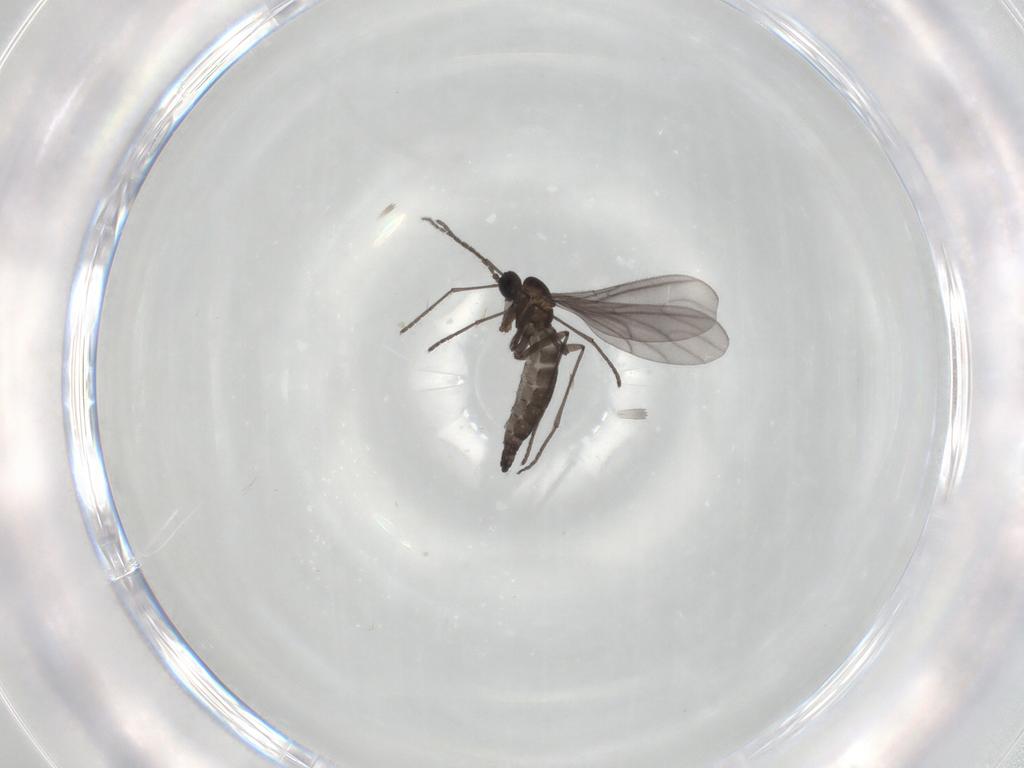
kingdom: Animalia
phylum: Arthropoda
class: Insecta
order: Diptera
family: Sciaridae
